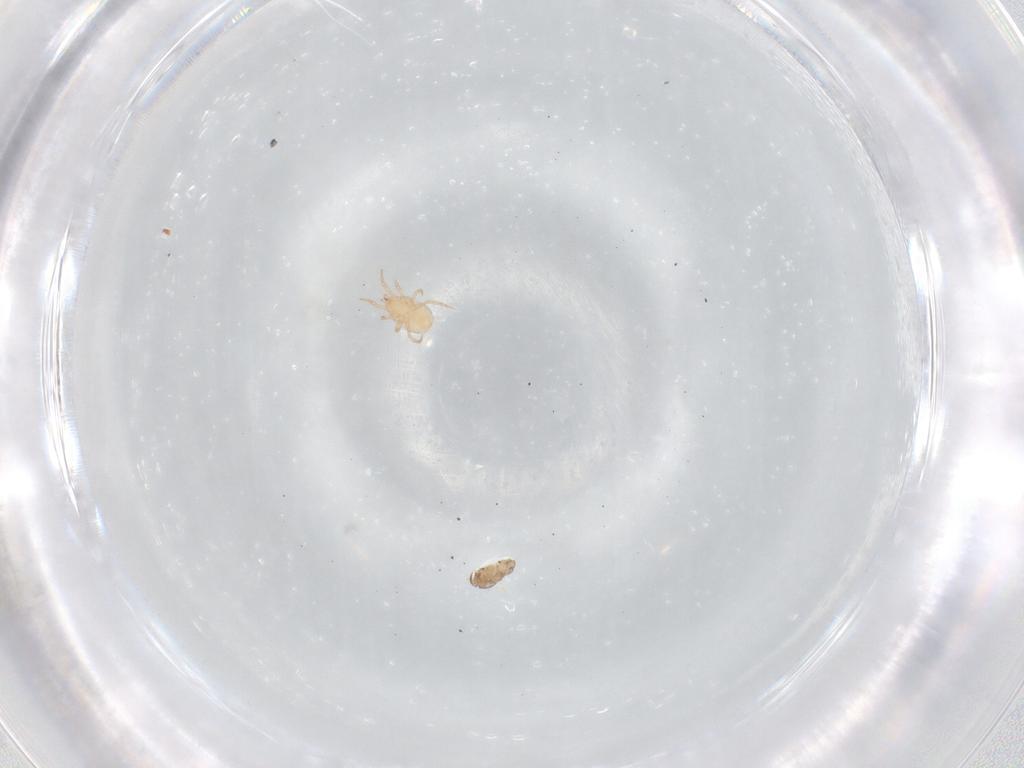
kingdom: Animalia
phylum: Arthropoda
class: Arachnida
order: Mesostigmata
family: Phytoseiidae
